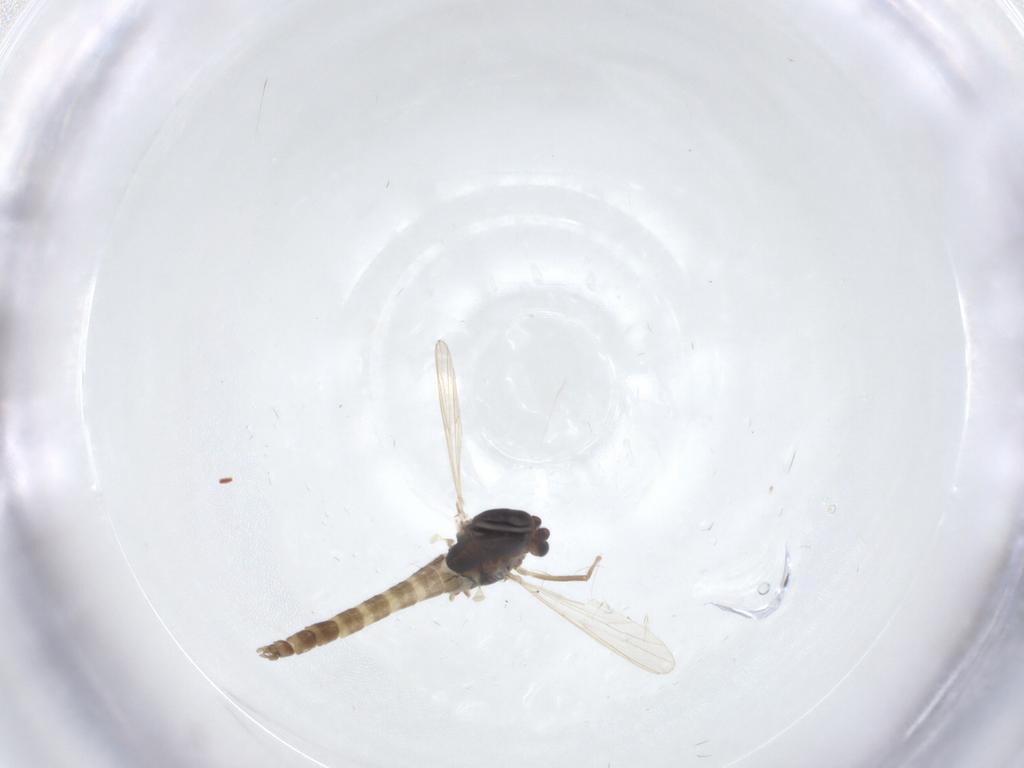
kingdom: Animalia
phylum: Arthropoda
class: Insecta
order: Diptera
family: Chironomidae
